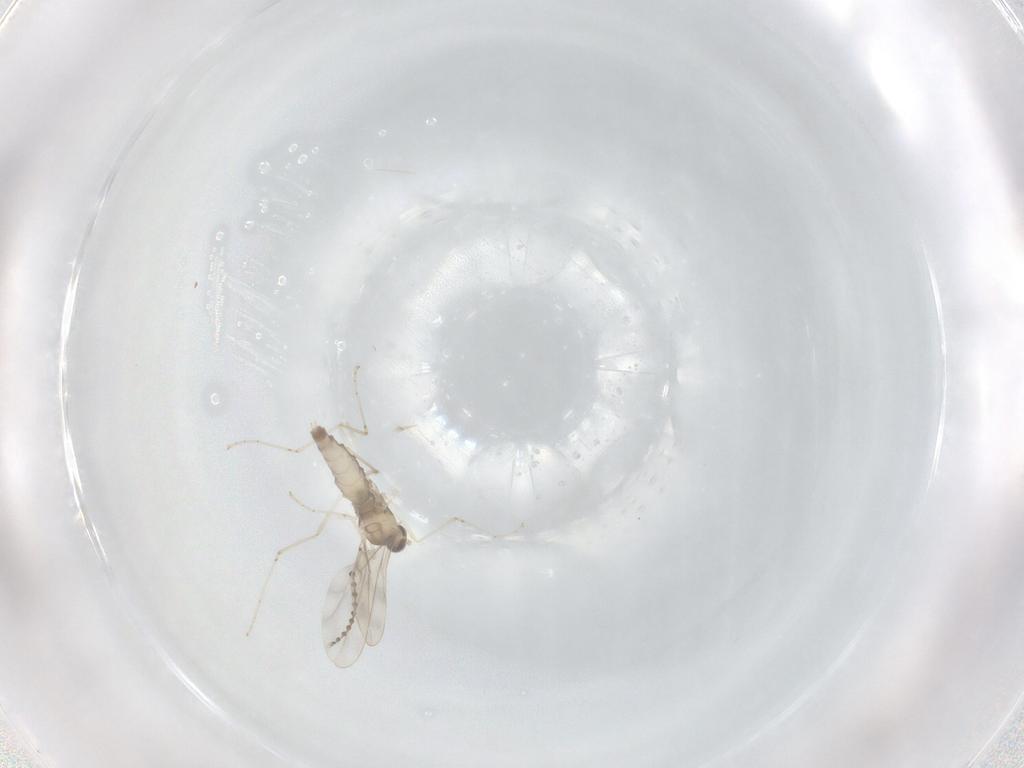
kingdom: Animalia
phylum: Arthropoda
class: Insecta
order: Diptera
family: Cecidomyiidae
